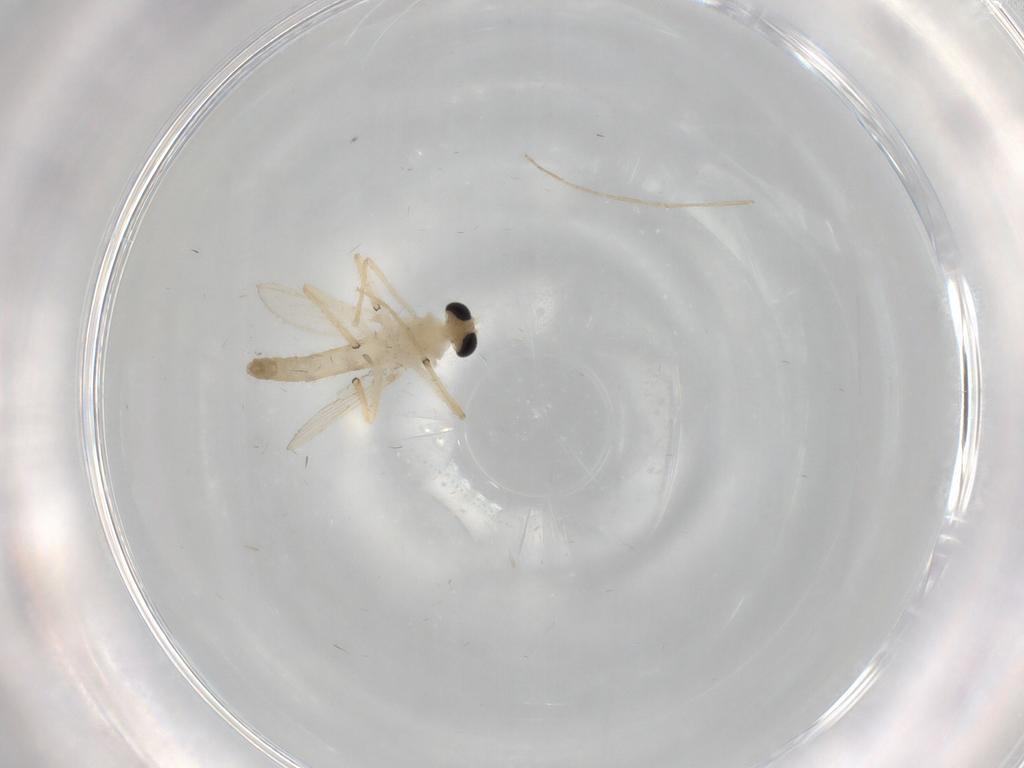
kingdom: Animalia
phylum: Arthropoda
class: Insecta
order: Diptera
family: Chironomidae
